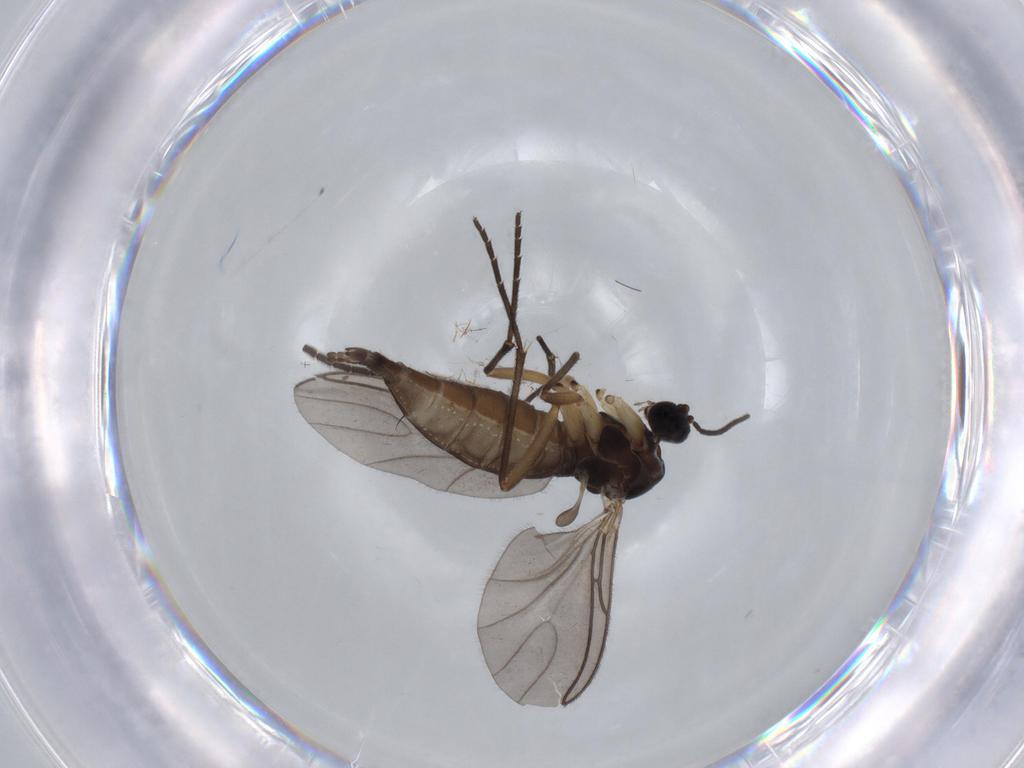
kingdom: Animalia
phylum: Arthropoda
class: Insecta
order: Diptera
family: Sciaridae
